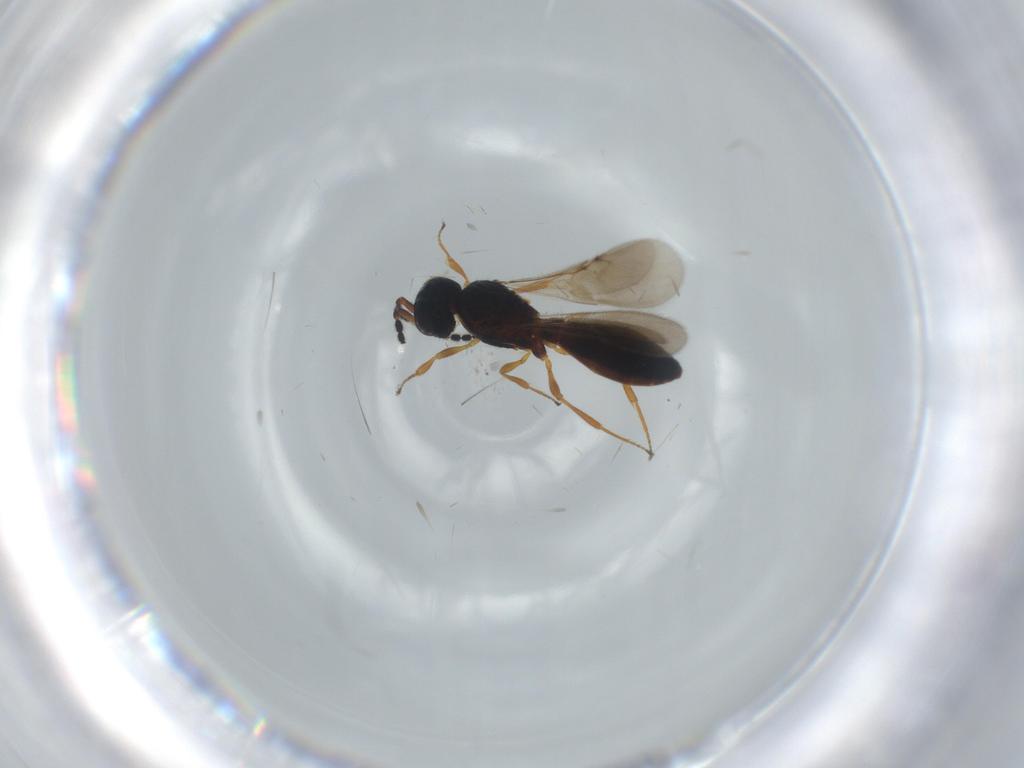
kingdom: Animalia
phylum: Arthropoda
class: Insecta
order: Hymenoptera
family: Scelionidae
